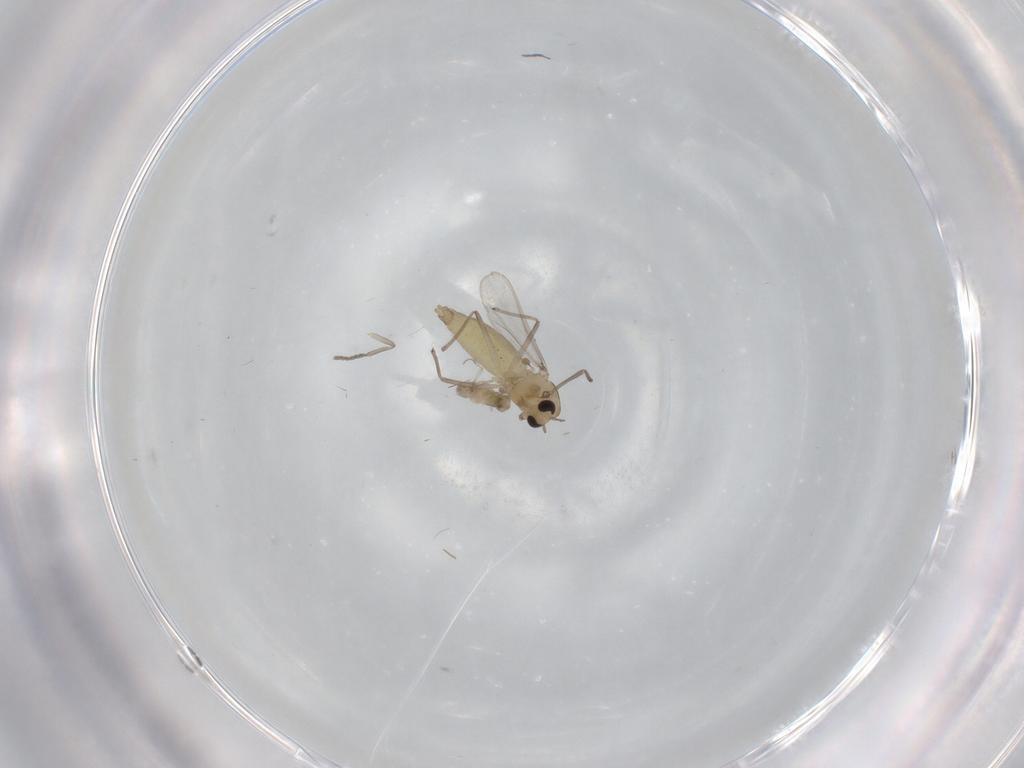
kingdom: Animalia
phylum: Arthropoda
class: Insecta
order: Diptera
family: Chironomidae
